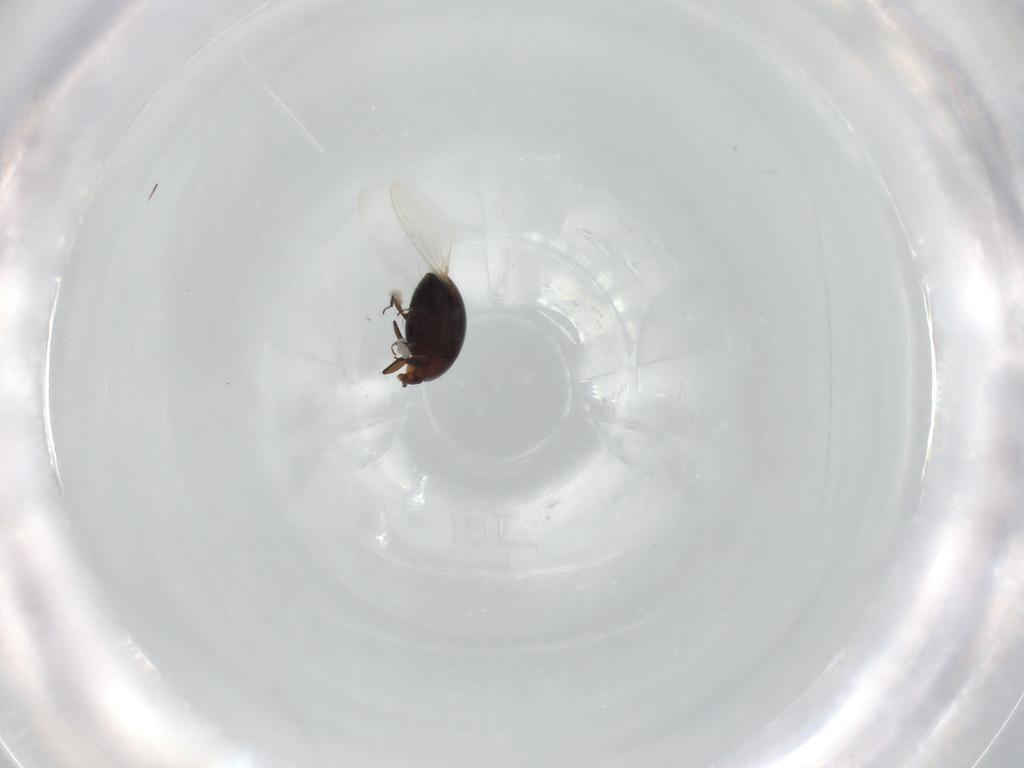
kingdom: Animalia
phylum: Arthropoda
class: Insecta
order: Coleoptera
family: Corylophidae
